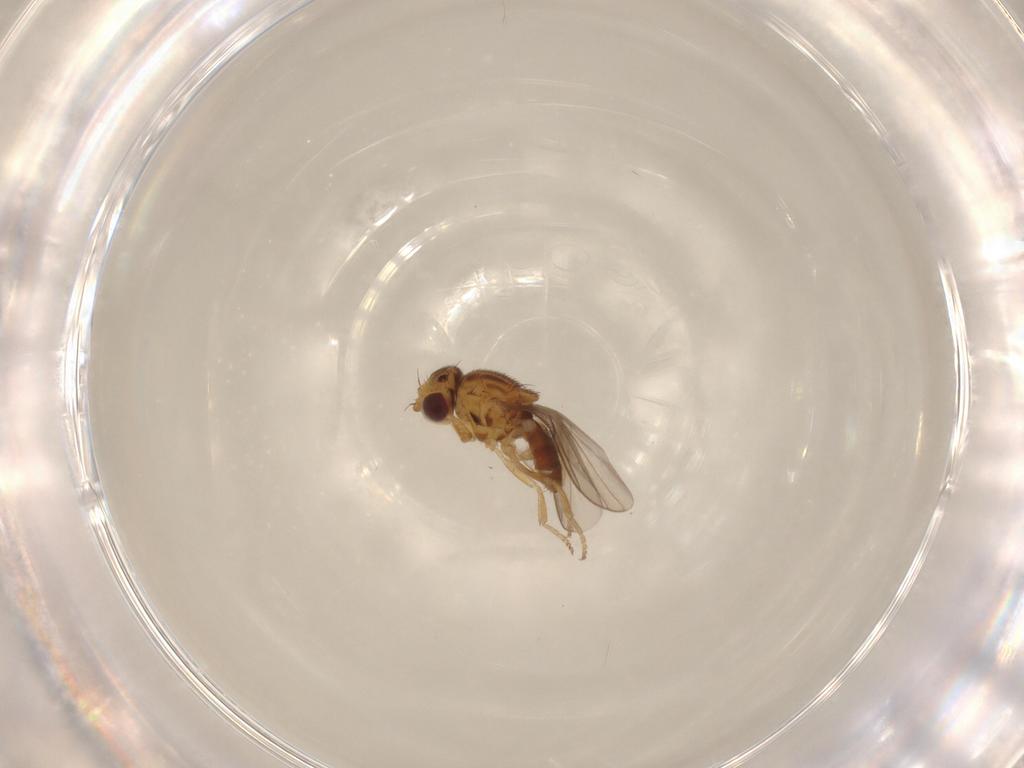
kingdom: Animalia
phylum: Arthropoda
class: Insecta
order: Diptera
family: Chloropidae
